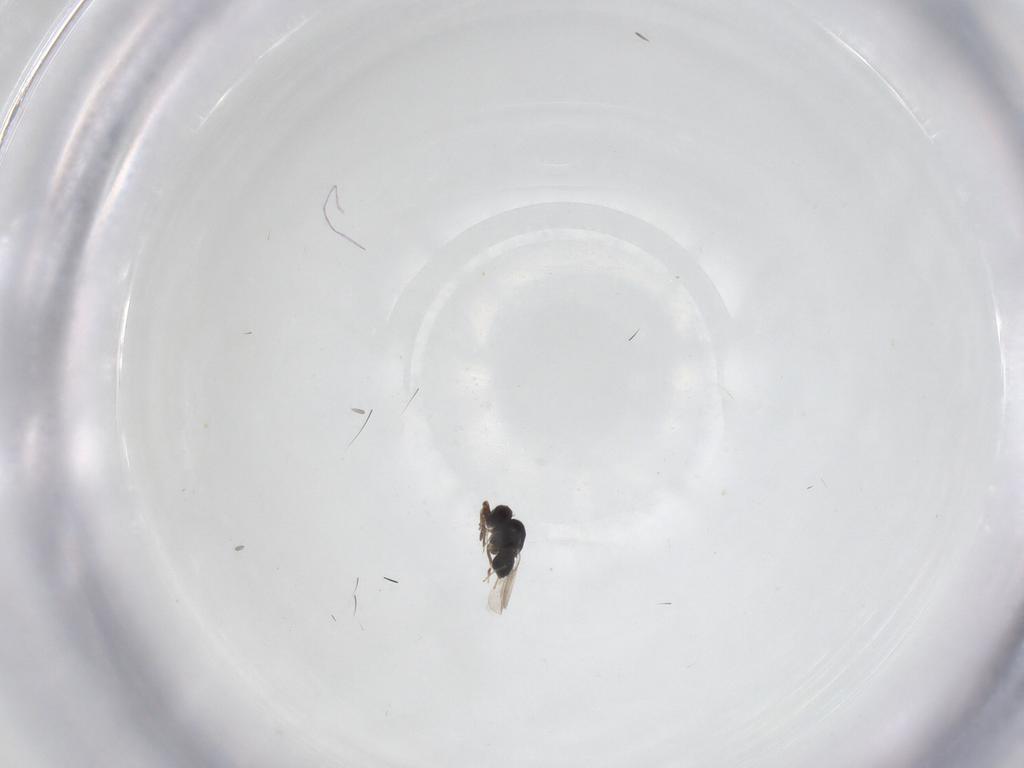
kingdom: Animalia
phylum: Arthropoda
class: Insecta
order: Hymenoptera
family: Ceraphronidae
